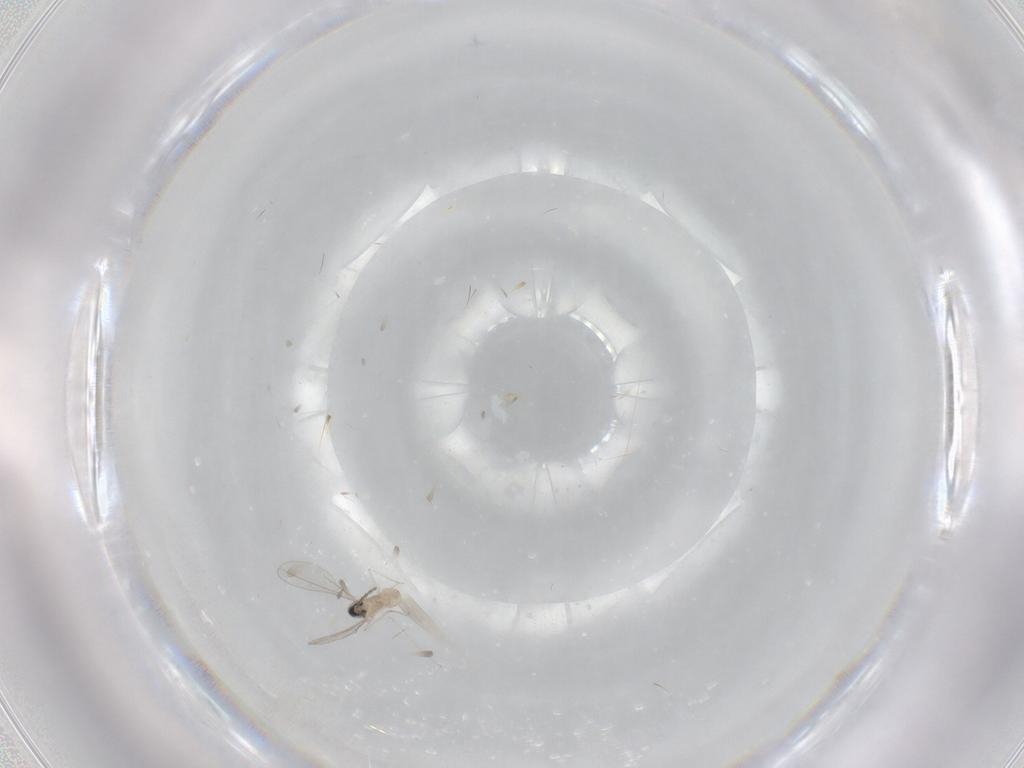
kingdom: Animalia
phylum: Arthropoda
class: Insecta
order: Diptera
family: Cecidomyiidae
